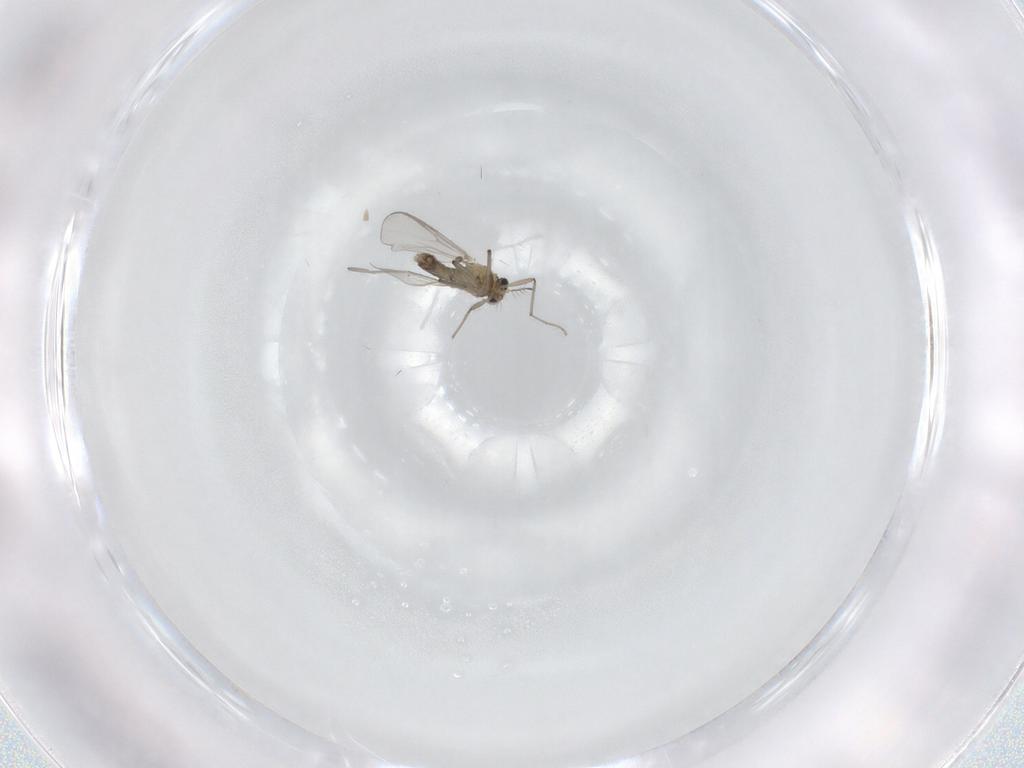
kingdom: Animalia
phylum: Arthropoda
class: Insecta
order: Diptera
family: Chironomidae
